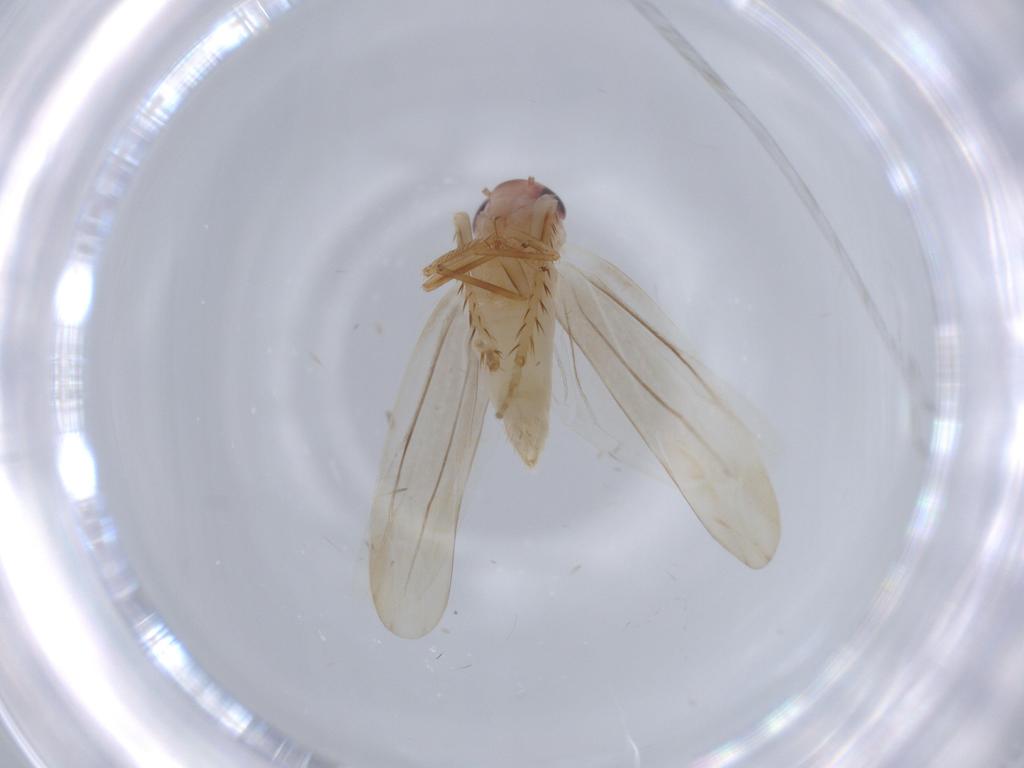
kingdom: Animalia
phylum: Arthropoda
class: Insecta
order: Hemiptera
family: Cicadellidae
